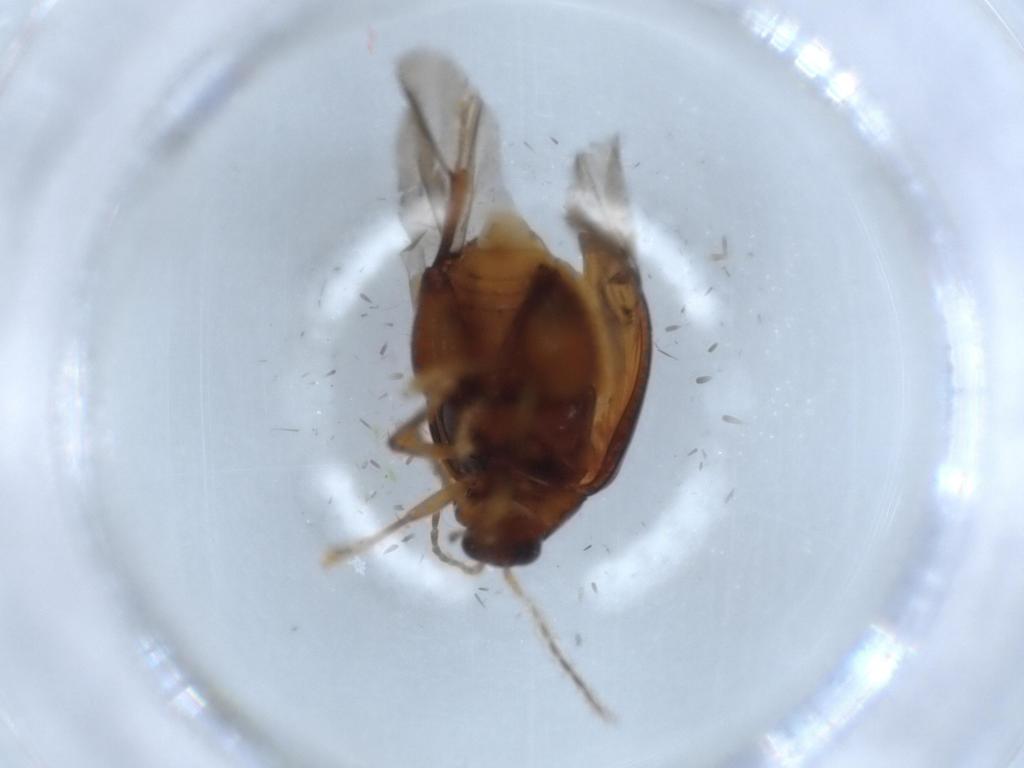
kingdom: Animalia
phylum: Arthropoda
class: Insecta
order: Coleoptera
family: Chrysomelidae
